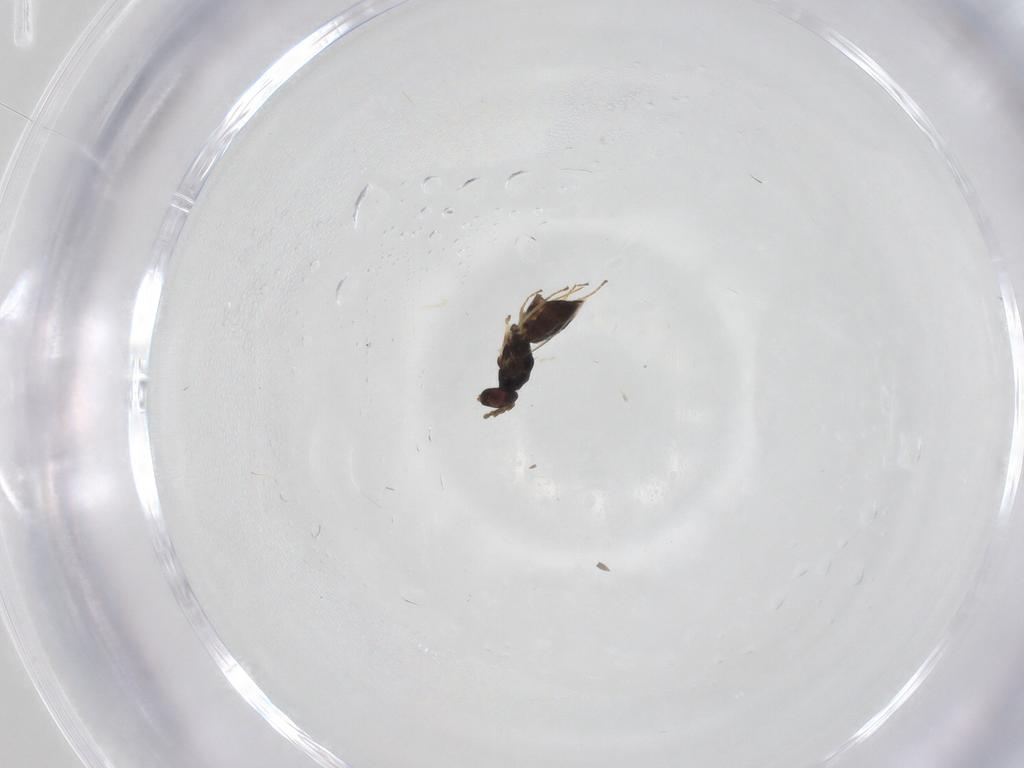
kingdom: Animalia
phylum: Arthropoda
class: Insecta
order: Hymenoptera
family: Eulophidae
